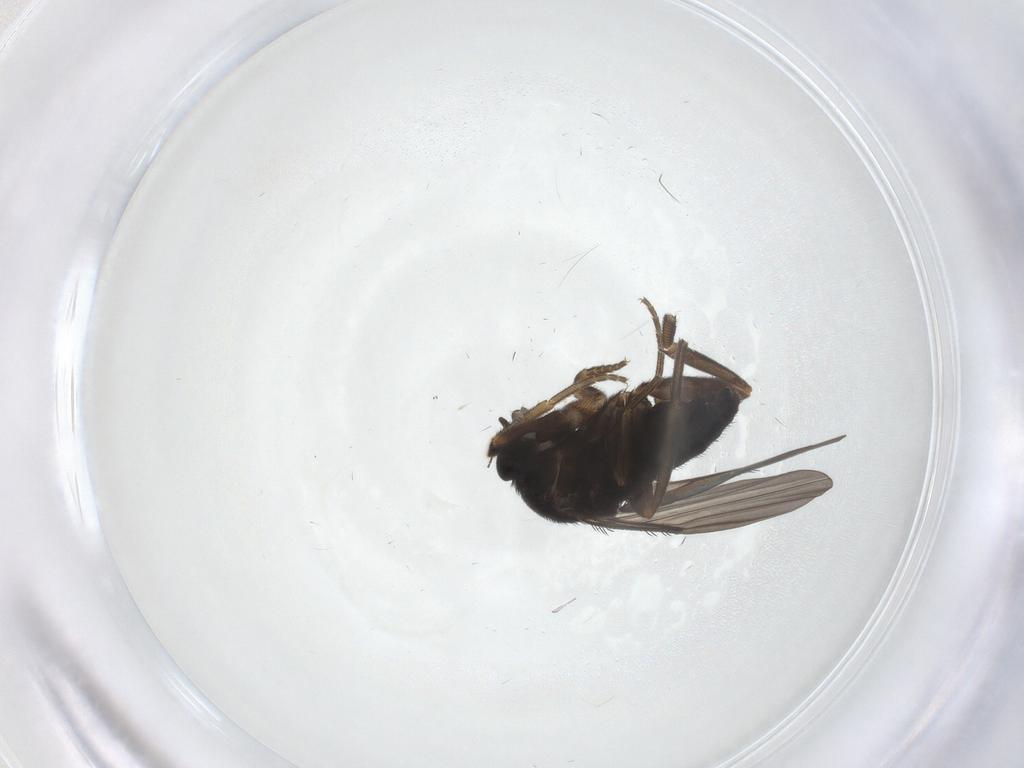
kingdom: Animalia
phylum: Arthropoda
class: Insecta
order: Diptera
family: Phoridae
